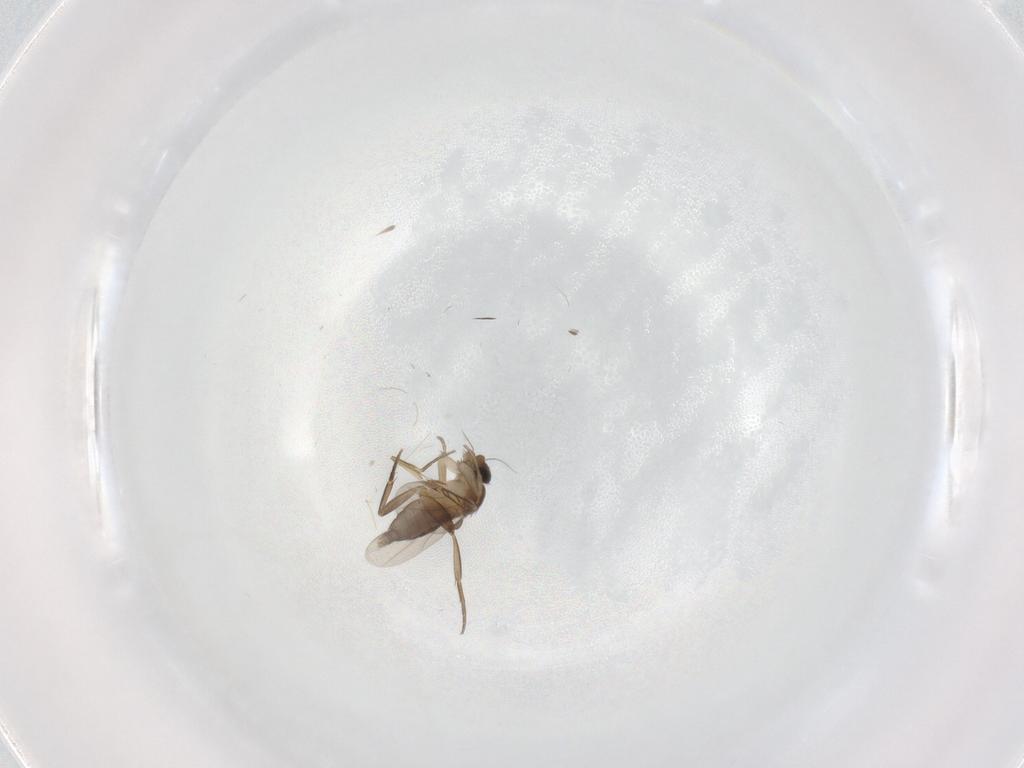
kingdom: Animalia
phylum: Arthropoda
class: Insecta
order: Diptera
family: Phoridae
